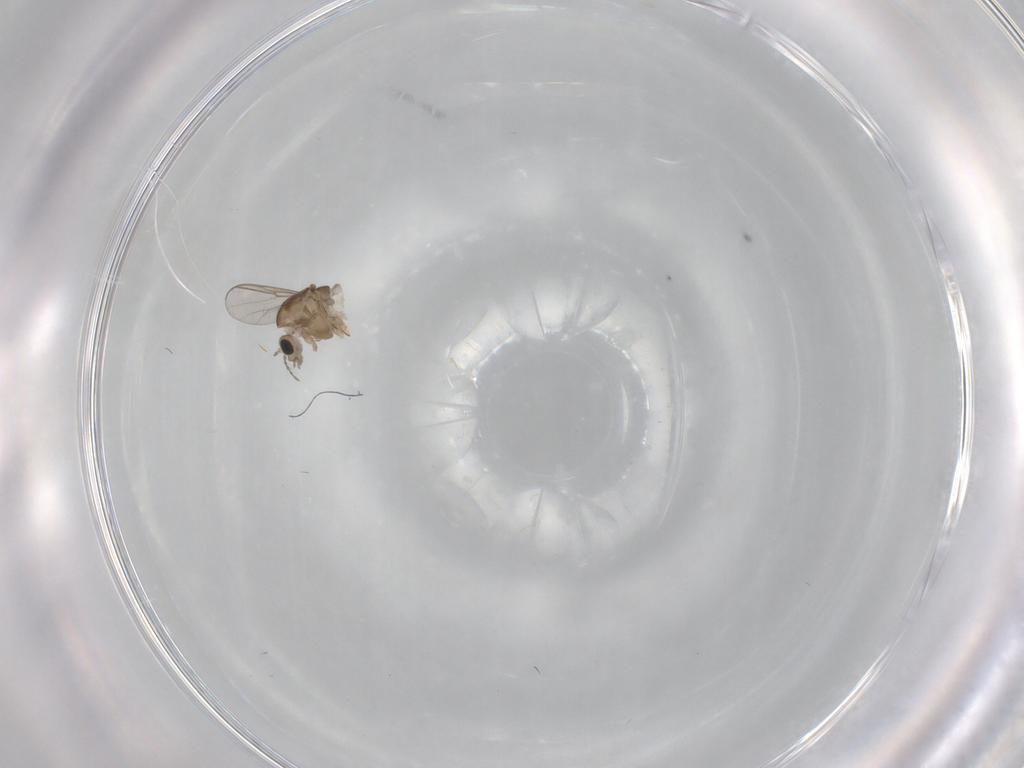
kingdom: Animalia
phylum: Arthropoda
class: Insecta
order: Diptera
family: Chironomidae
